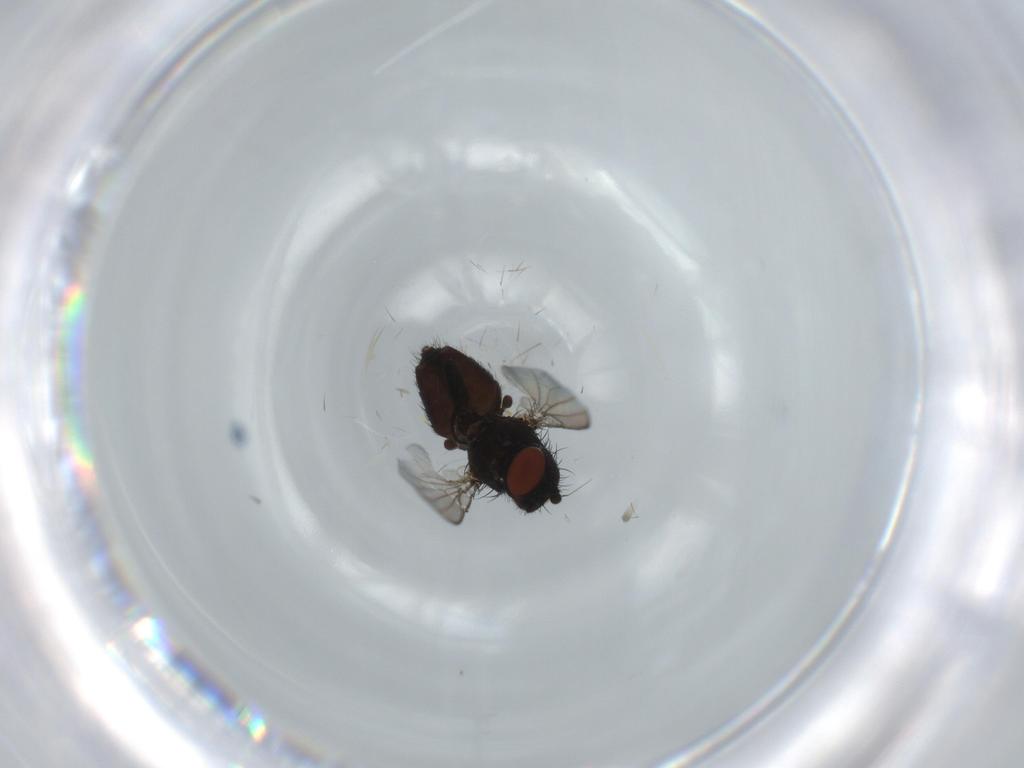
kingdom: Animalia
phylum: Arthropoda
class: Insecta
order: Diptera
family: Milichiidae
